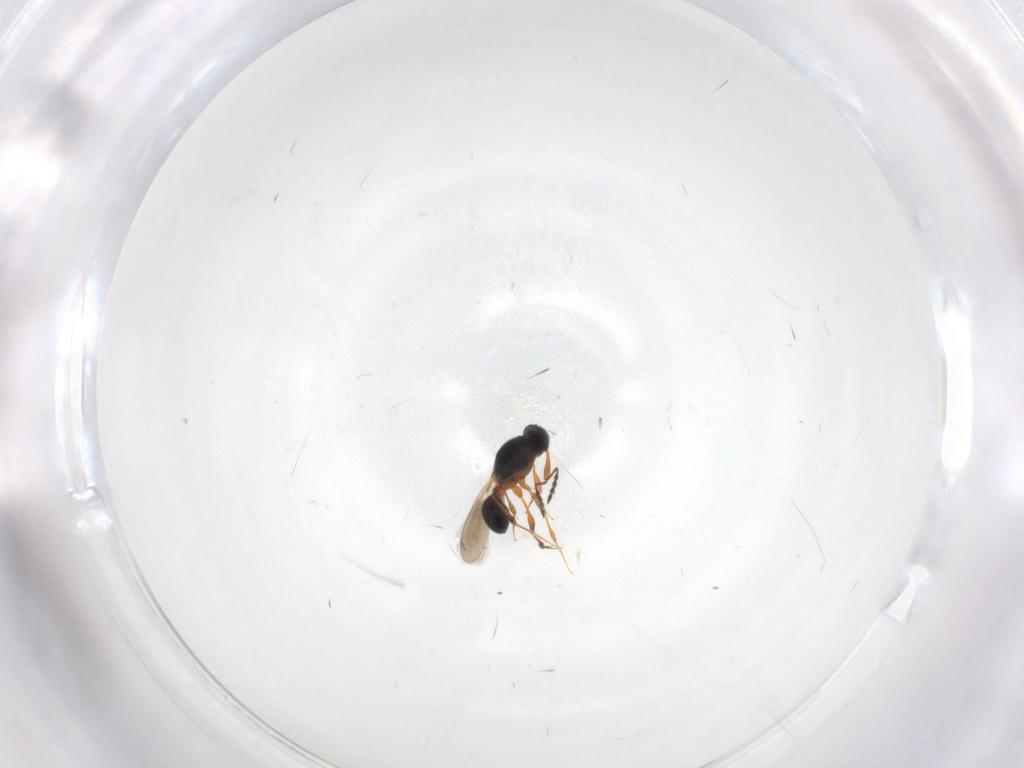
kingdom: Animalia
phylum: Arthropoda
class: Insecta
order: Hymenoptera
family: Platygastridae
